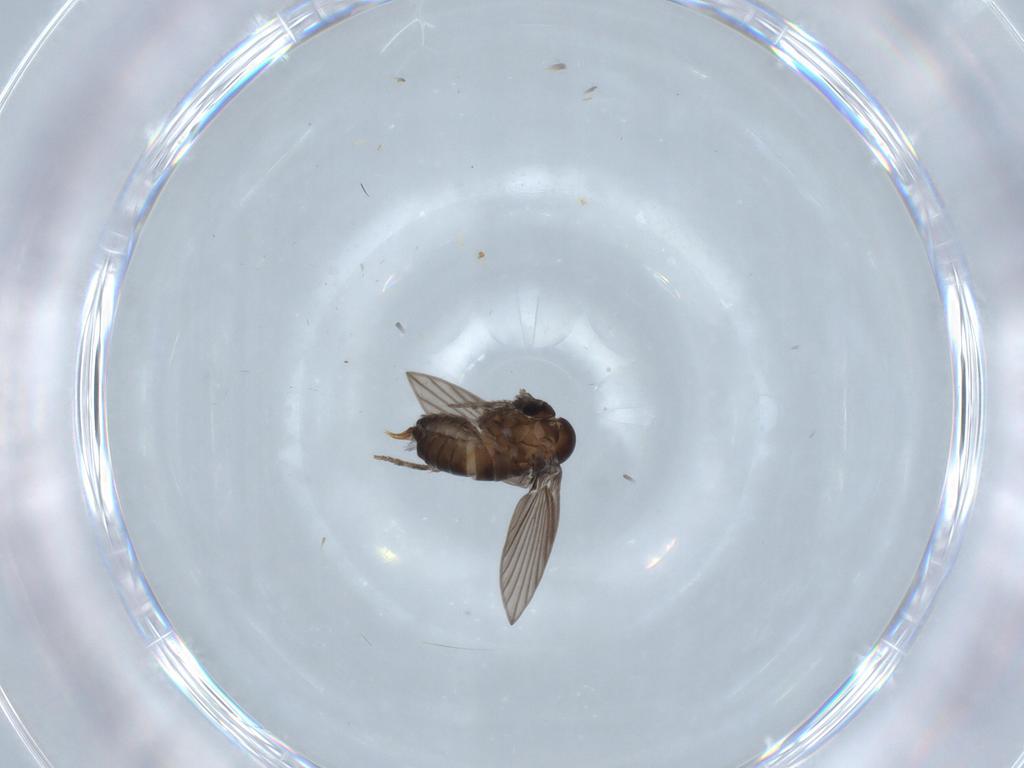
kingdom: Animalia
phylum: Arthropoda
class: Insecta
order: Diptera
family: Psychodidae
